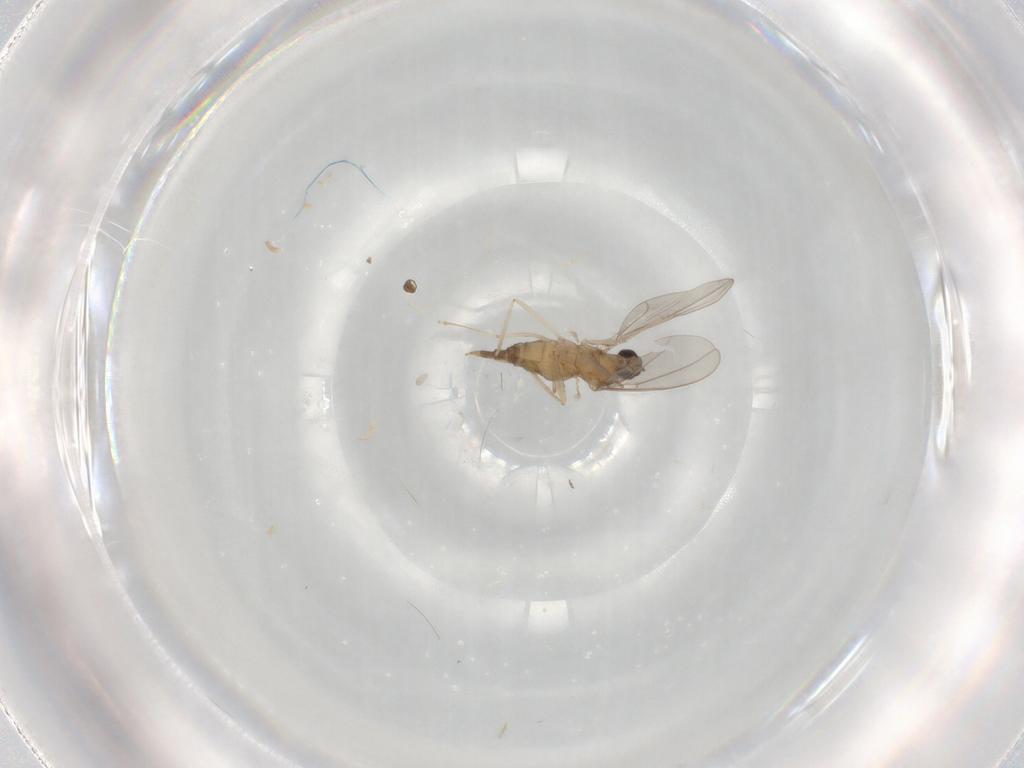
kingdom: Animalia
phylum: Arthropoda
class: Insecta
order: Diptera
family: Cecidomyiidae
